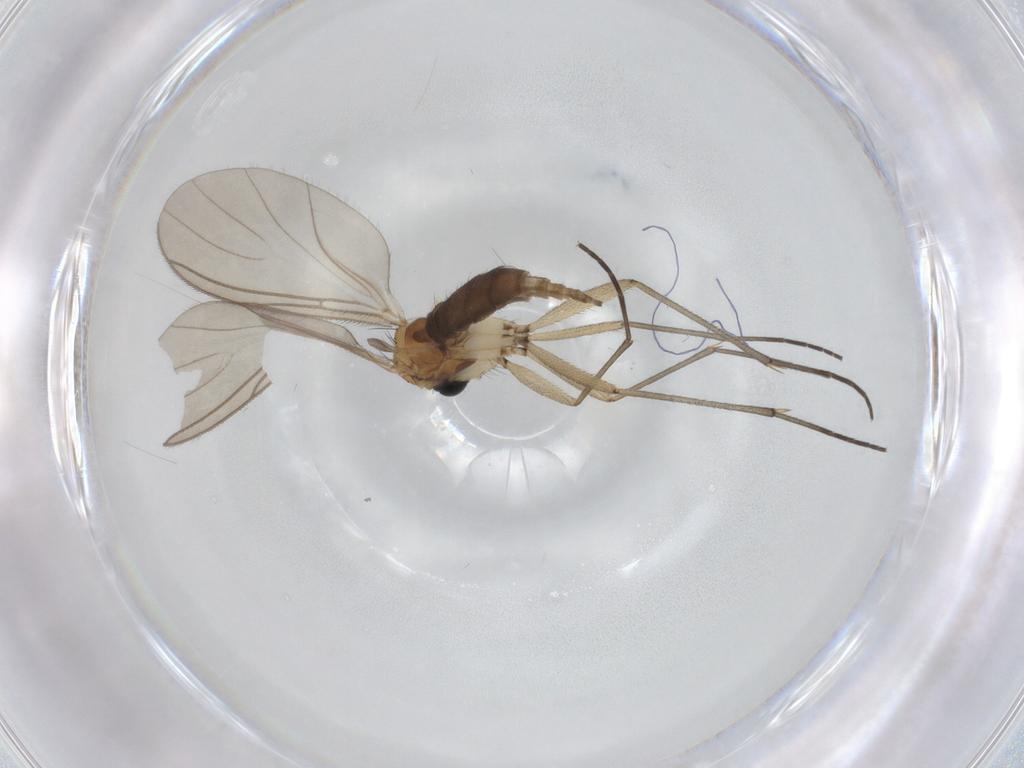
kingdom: Animalia
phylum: Arthropoda
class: Insecta
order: Diptera
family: Sciaridae
